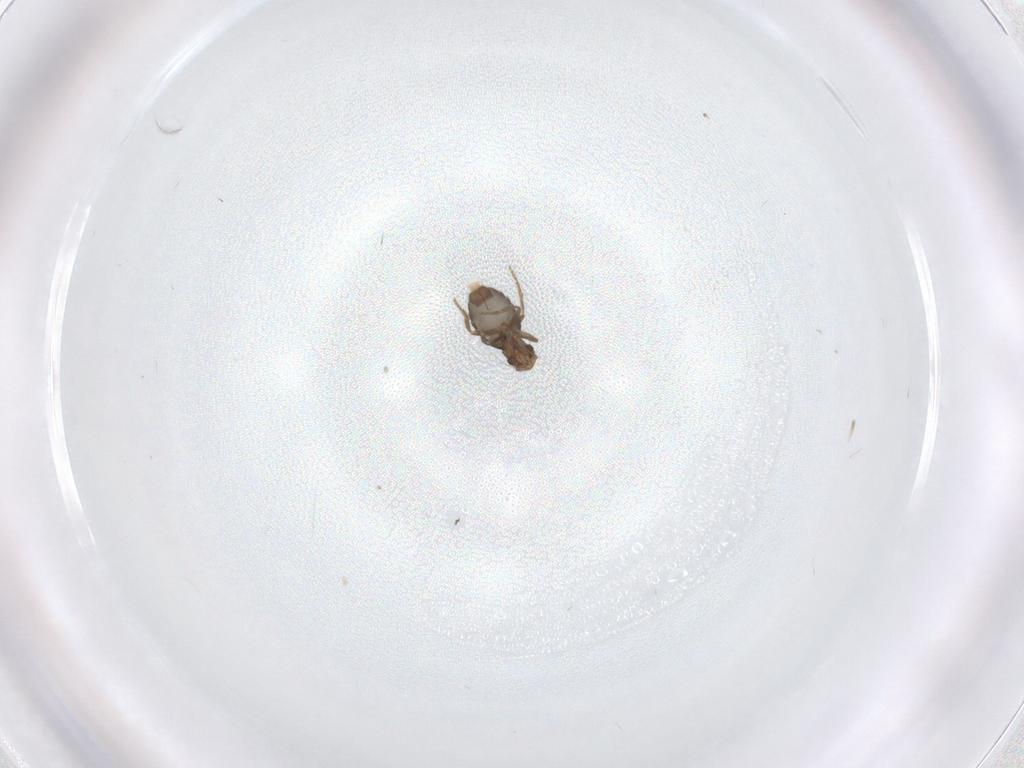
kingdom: Animalia
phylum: Arthropoda
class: Insecta
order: Diptera
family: Phoridae
